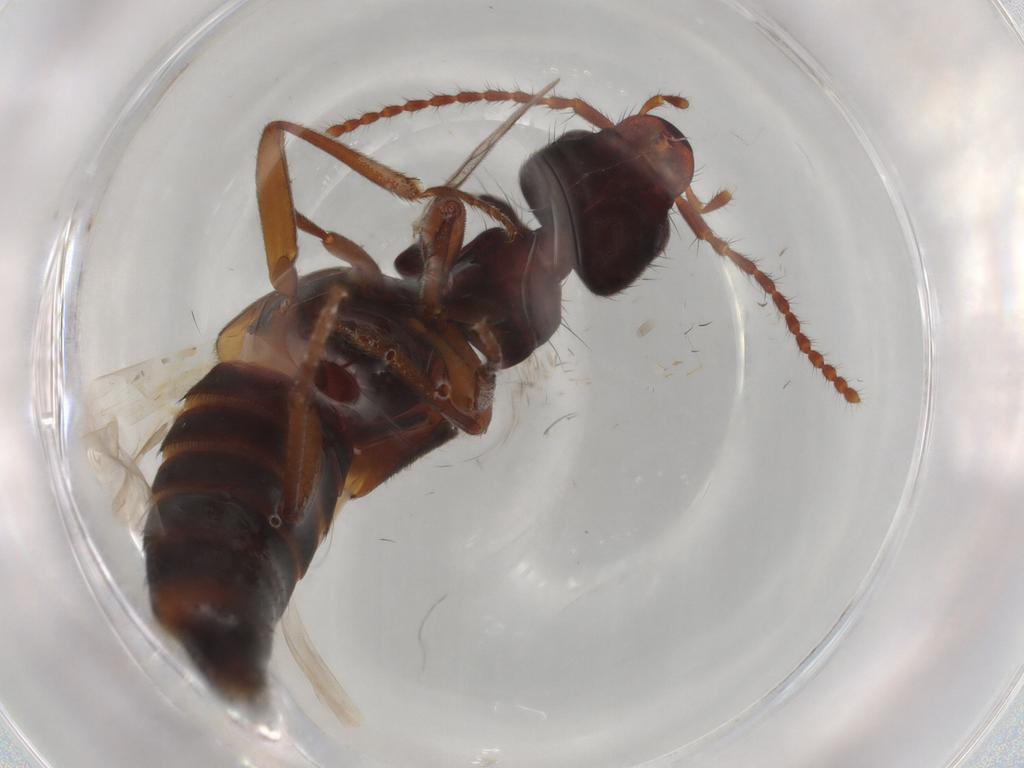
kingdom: Animalia
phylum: Arthropoda
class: Insecta
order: Coleoptera
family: Staphylinidae
